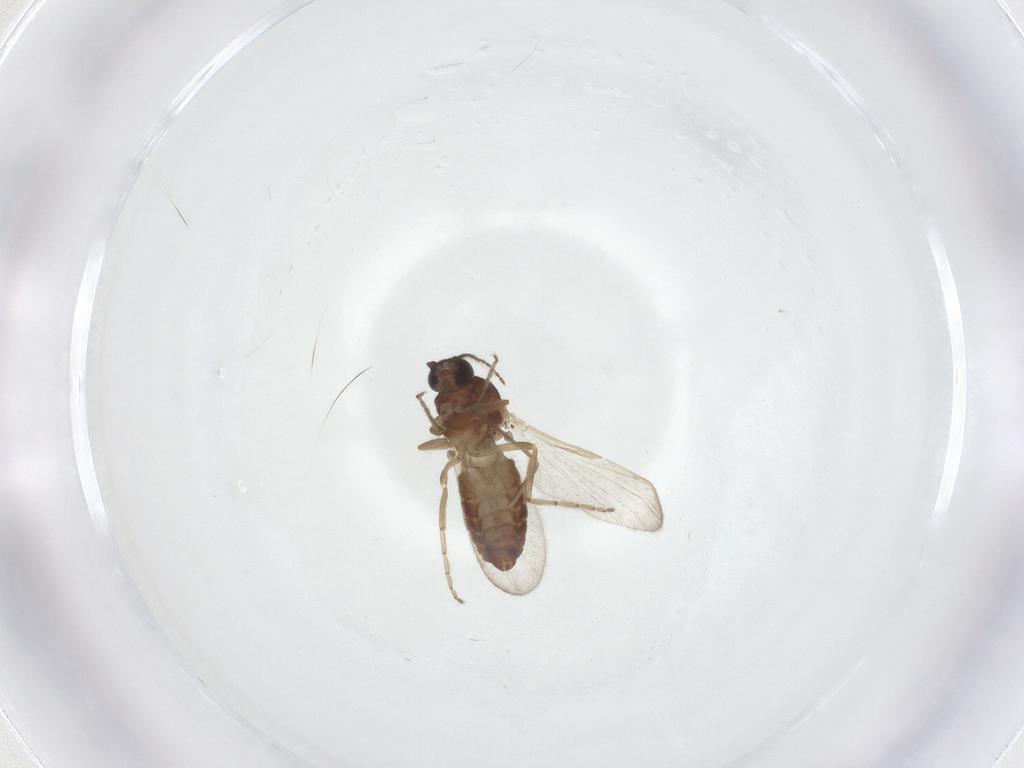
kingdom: Animalia
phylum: Arthropoda
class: Insecta
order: Diptera
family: Ceratopogonidae
